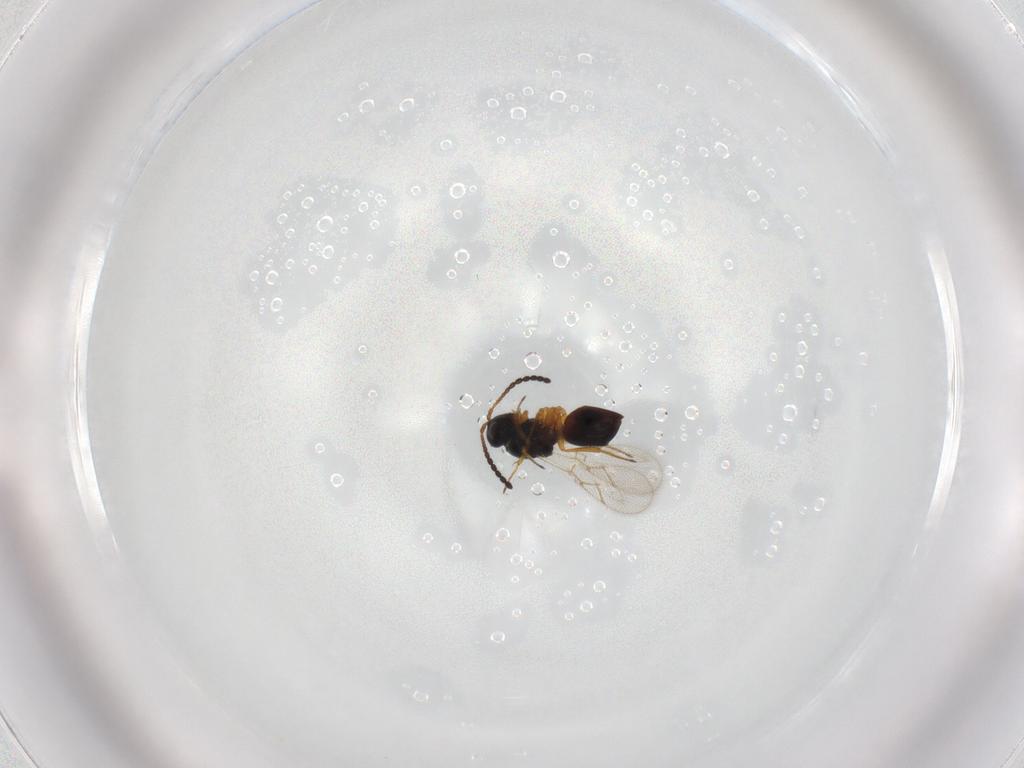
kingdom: Animalia
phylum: Arthropoda
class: Insecta
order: Hymenoptera
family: Figitidae
